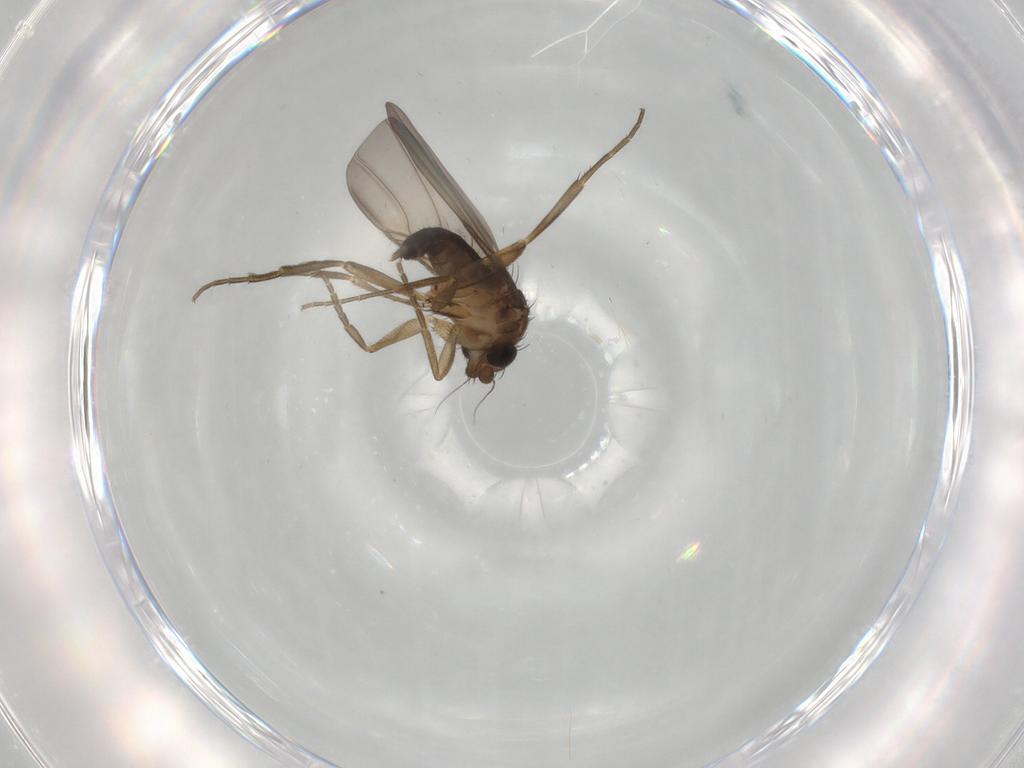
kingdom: Animalia
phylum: Arthropoda
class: Insecta
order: Diptera
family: Phoridae
